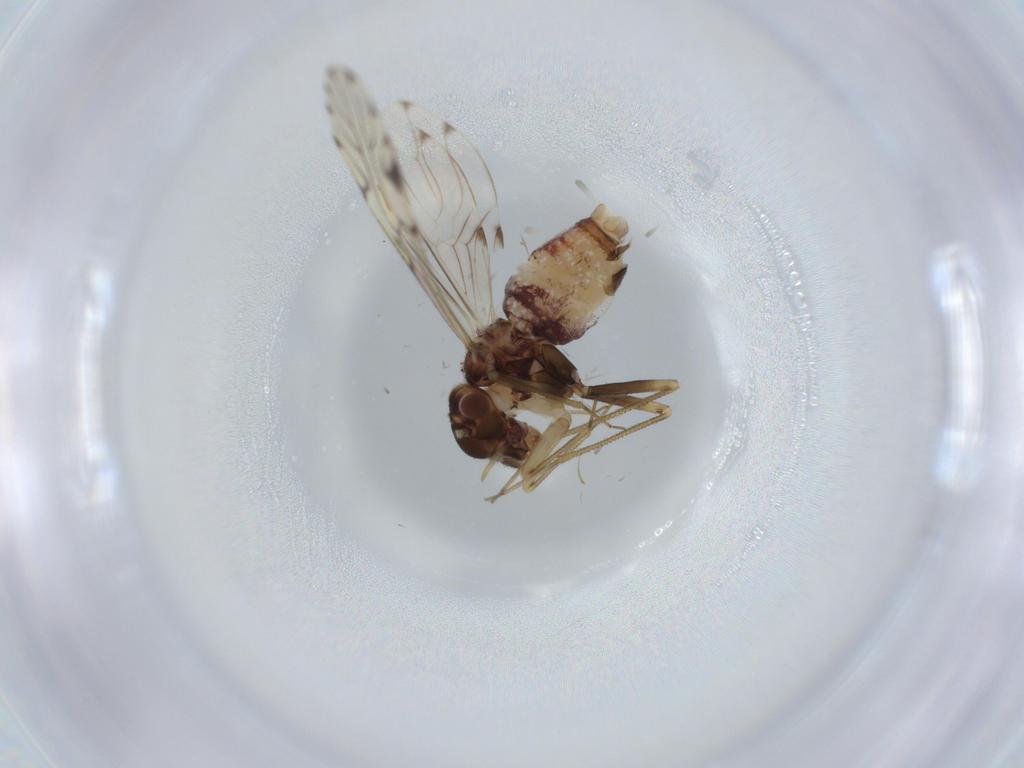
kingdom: Animalia
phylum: Arthropoda
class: Insecta
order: Psocodea
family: Epipsocidae
